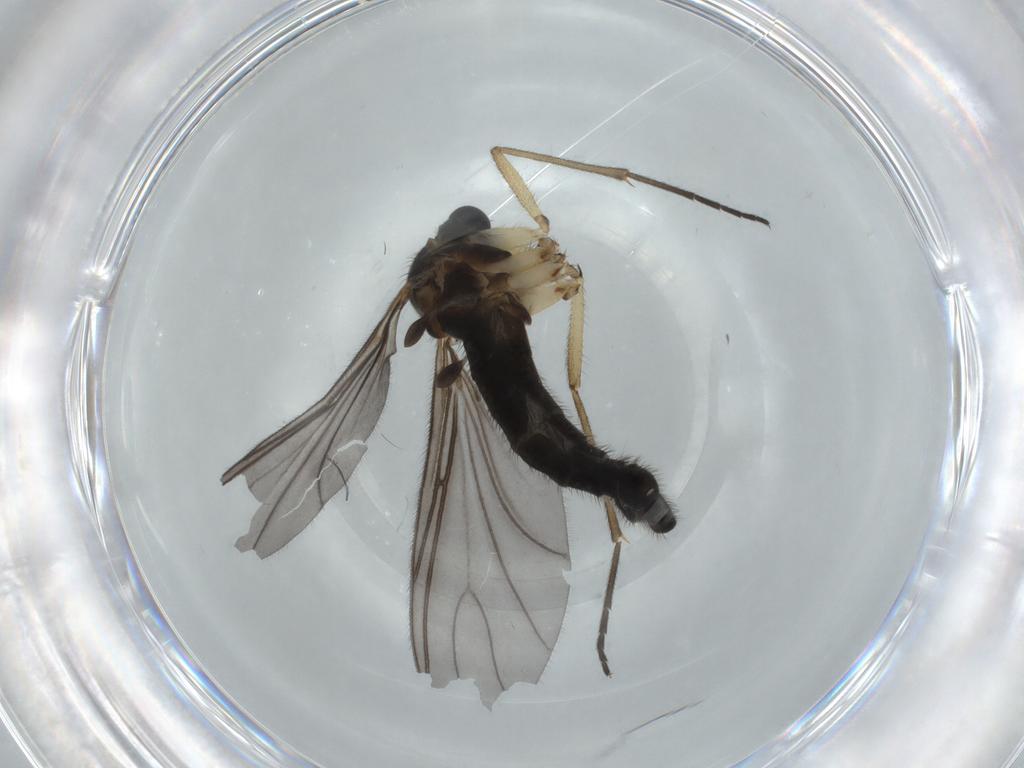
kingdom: Animalia
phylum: Arthropoda
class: Insecta
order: Diptera
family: Sciaridae
